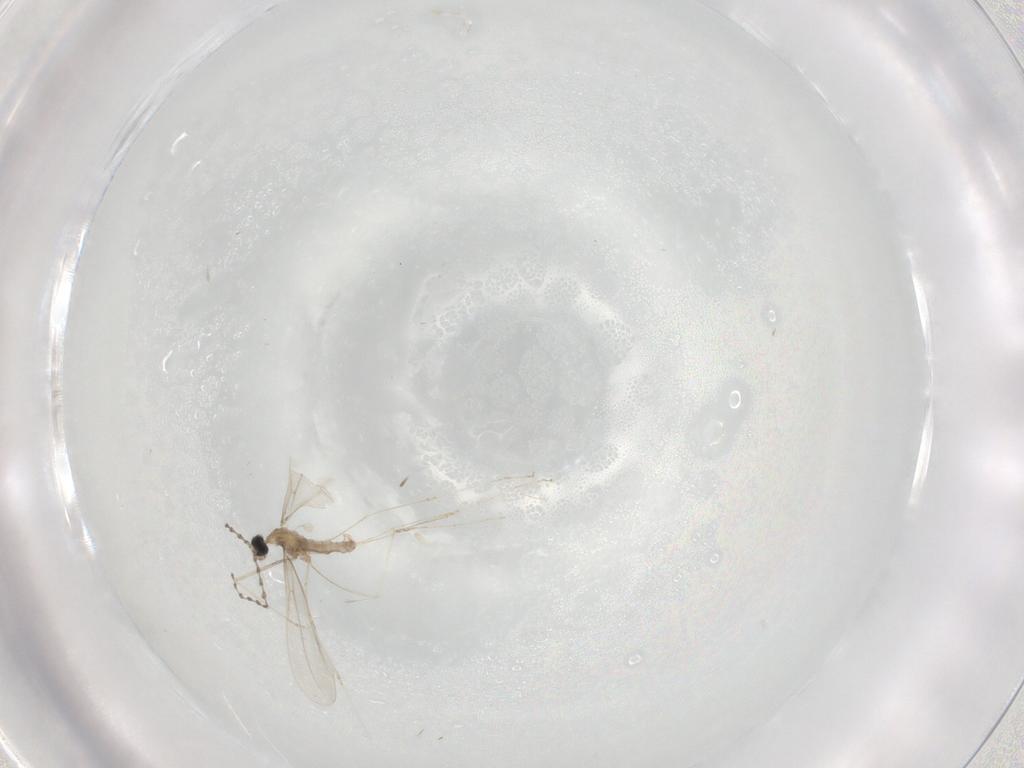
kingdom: Animalia
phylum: Arthropoda
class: Insecta
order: Diptera
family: Cecidomyiidae
